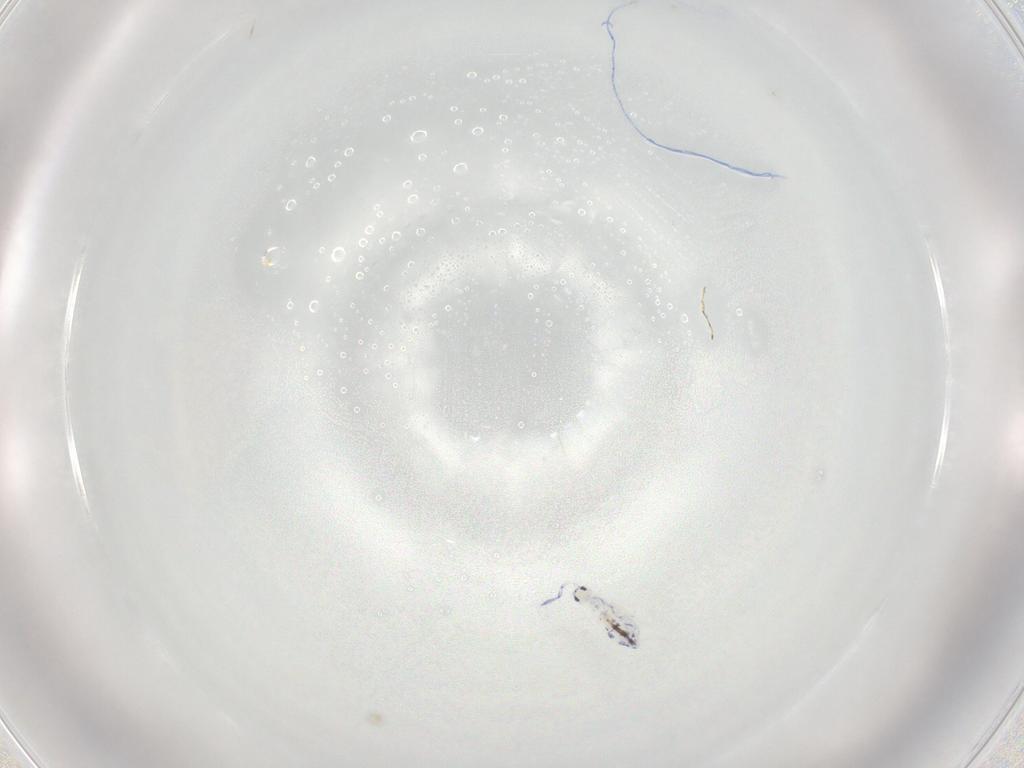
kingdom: Animalia
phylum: Arthropoda
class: Collembola
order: Entomobryomorpha
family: Entomobryidae
